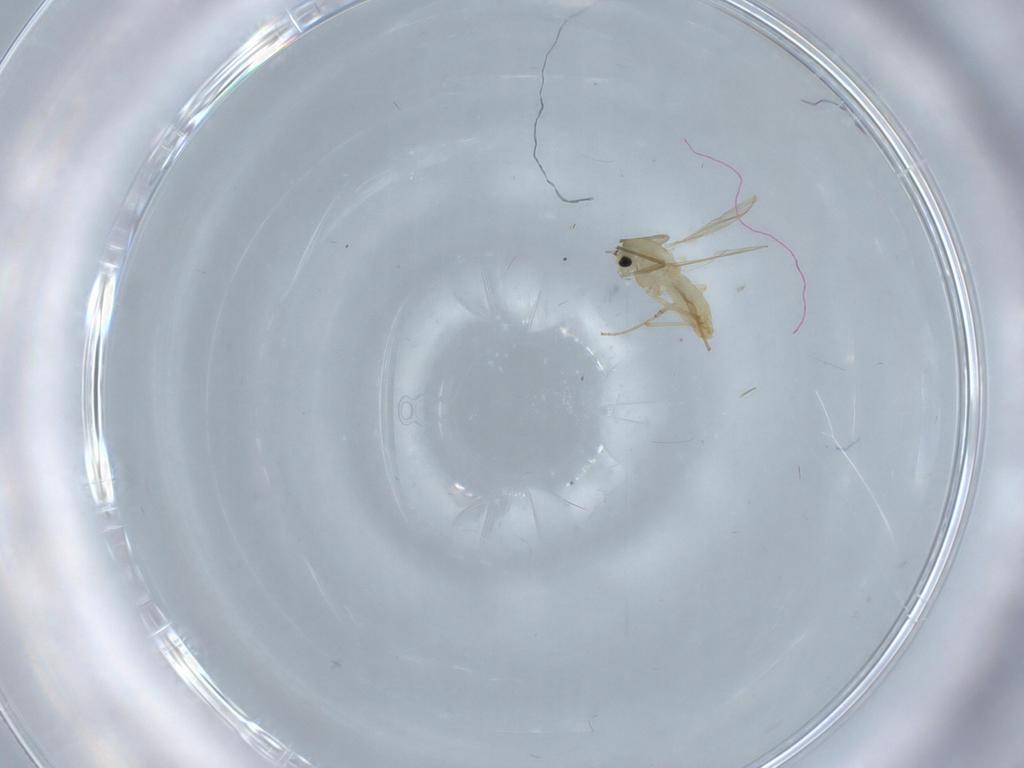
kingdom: Animalia
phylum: Arthropoda
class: Insecta
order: Diptera
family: Chironomidae
